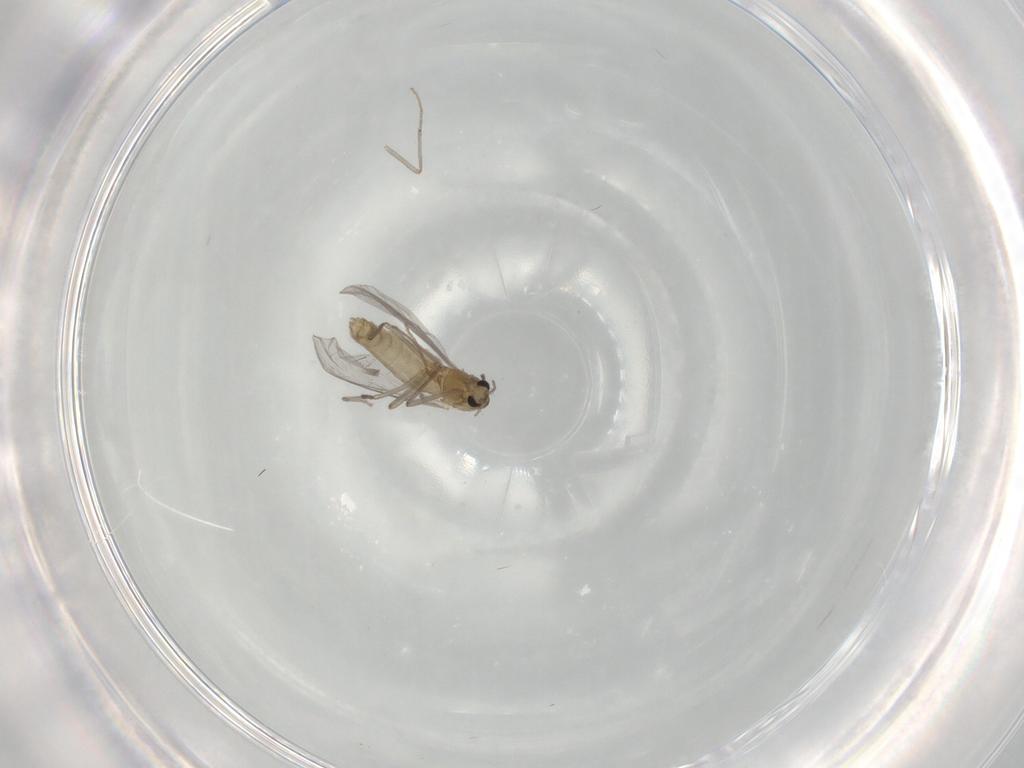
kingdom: Animalia
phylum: Arthropoda
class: Insecta
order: Diptera
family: Chironomidae
